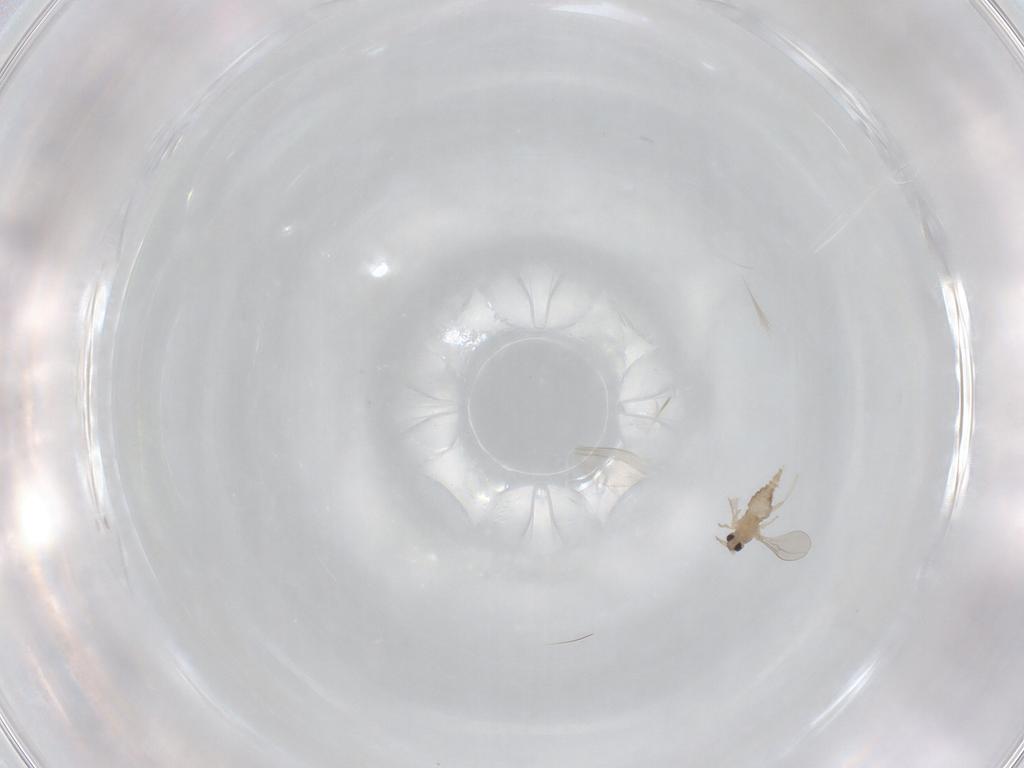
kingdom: Animalia
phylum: Arthropoda
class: Insecta
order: Diptera
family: Cecidomyiidae
